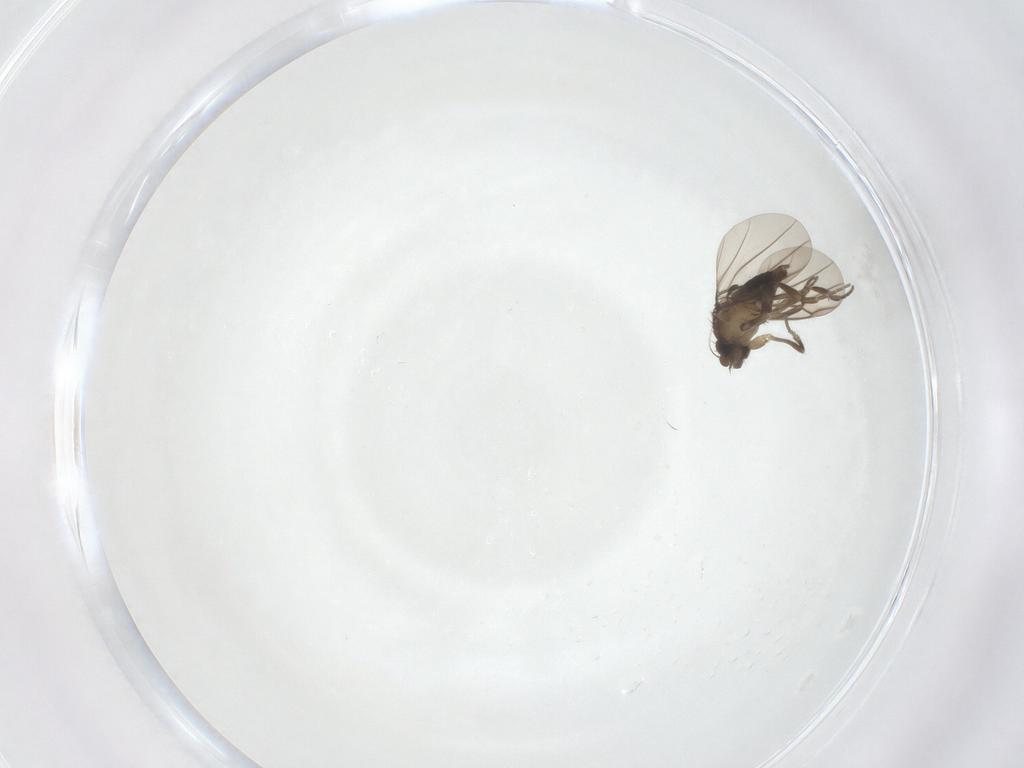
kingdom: Animalia
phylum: Arthropoda
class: Insecta
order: Diptera
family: Phoridae
